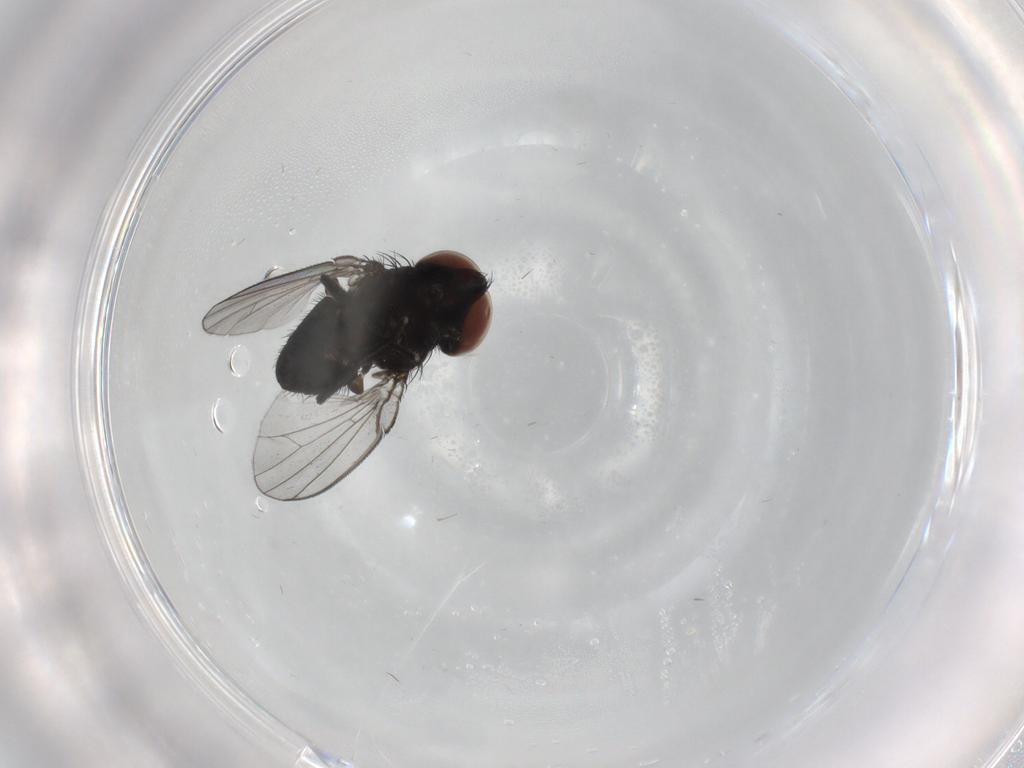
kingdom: Animalia
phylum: Arthropoda
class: Insecta
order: Diptera
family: Milichiidae
